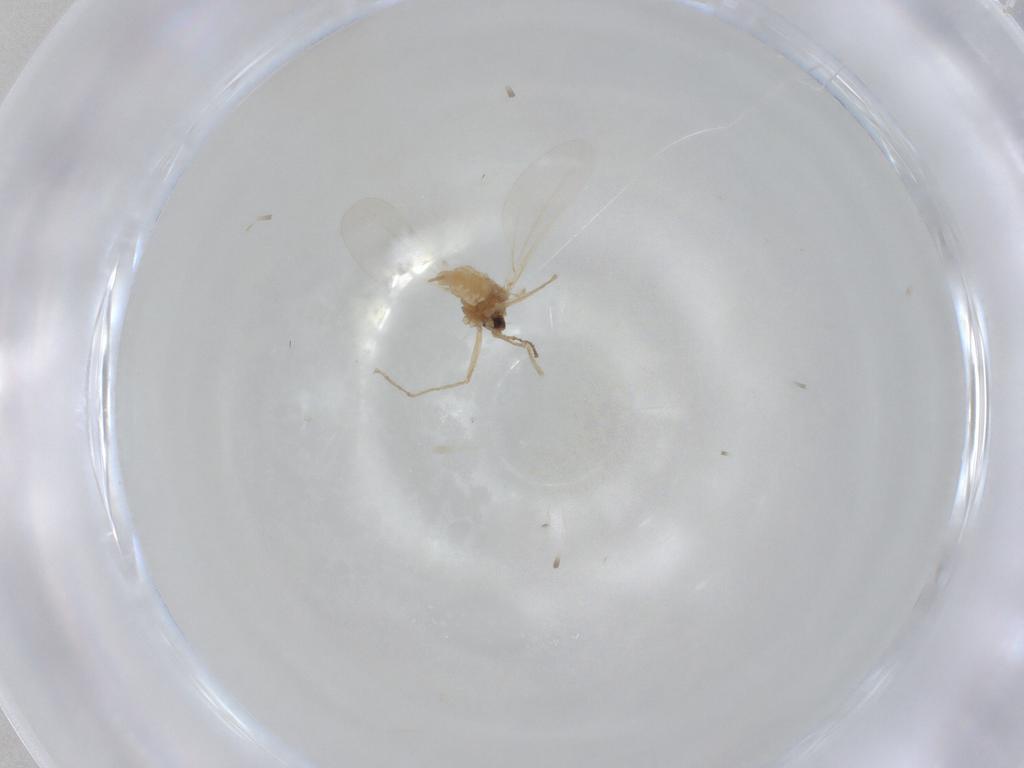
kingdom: Animalia
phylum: Arthropoda
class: Insecta
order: Diptera
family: Cecidomyiidae
